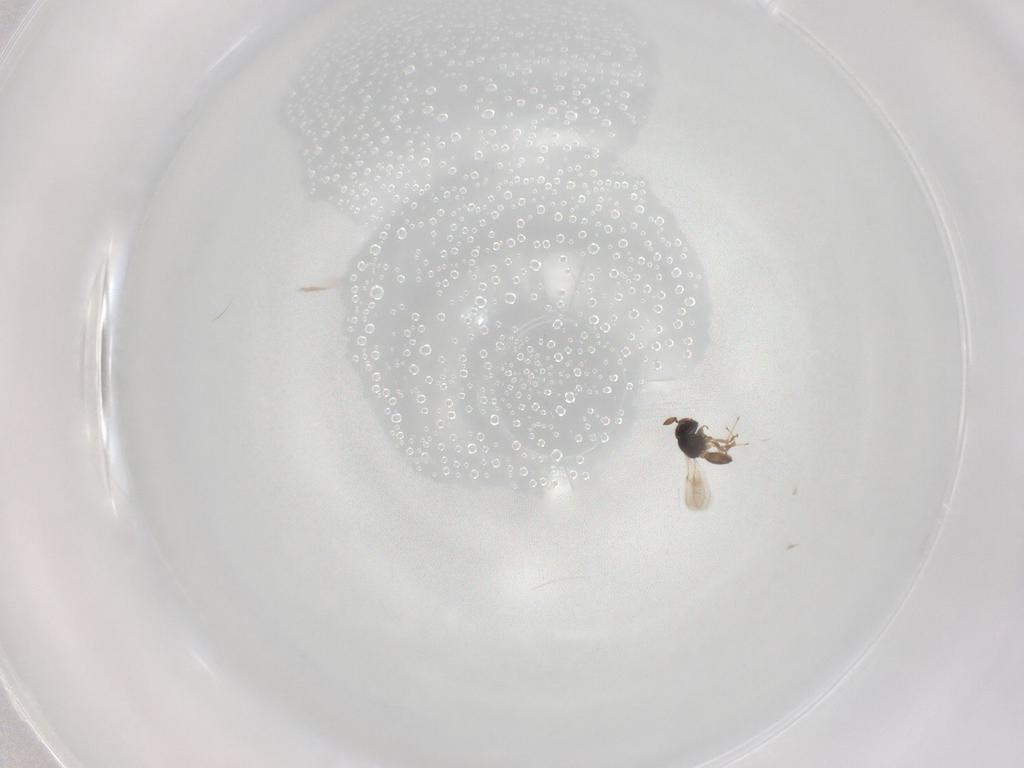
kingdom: Animalia
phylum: Arthropoda
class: Insecta
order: Hymenoptera
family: Scelionidae
